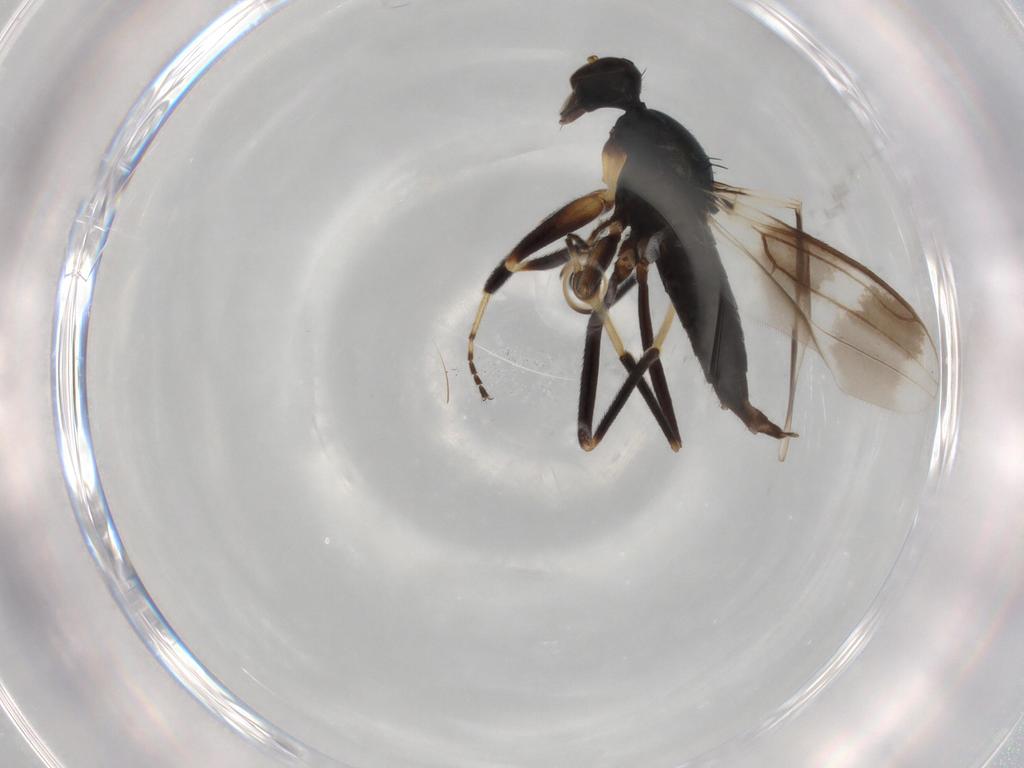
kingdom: Animalia
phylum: Arthropoda
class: Insecta
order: Diptera
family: Hybotidae
